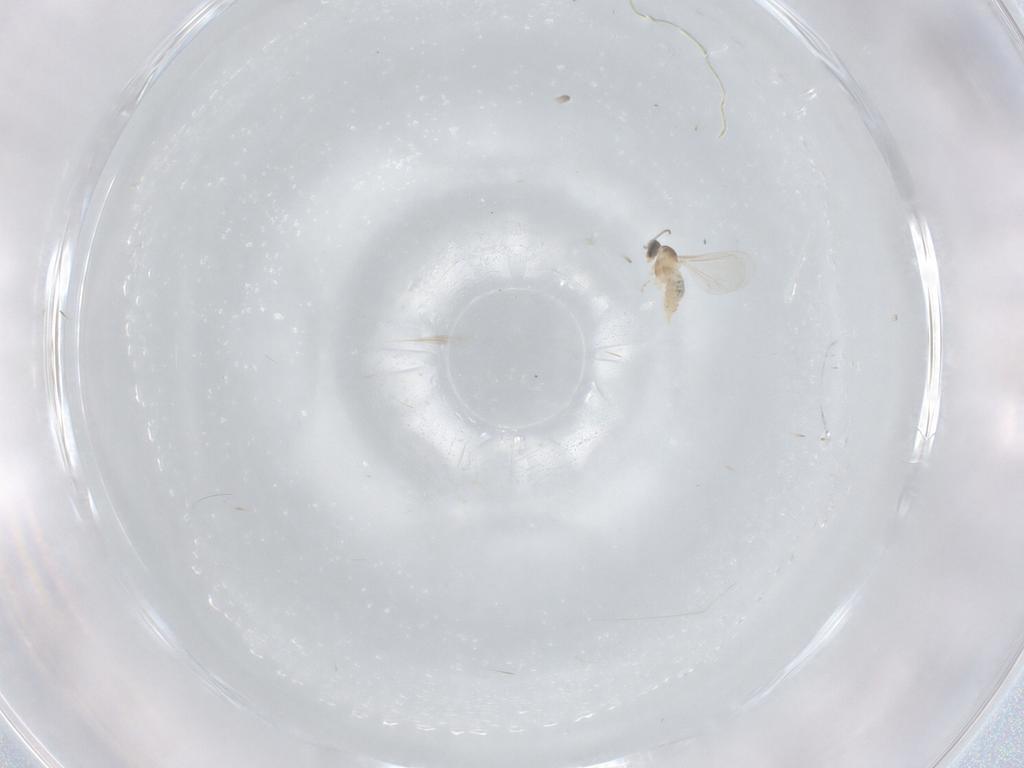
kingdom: Animalia
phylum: Arthropoda
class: Insecta
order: Diptera
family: Cecidomyiidae
